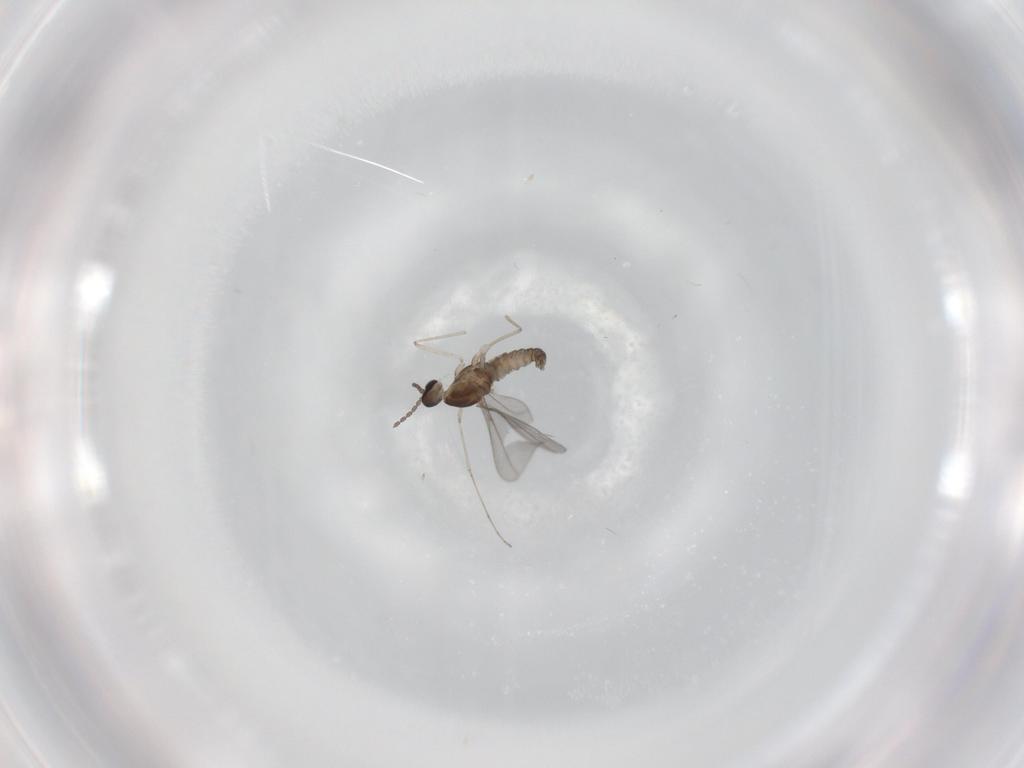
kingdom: Animalia
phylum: Arthropoda
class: Insecta
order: Diptera
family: Cecidomyiidae
